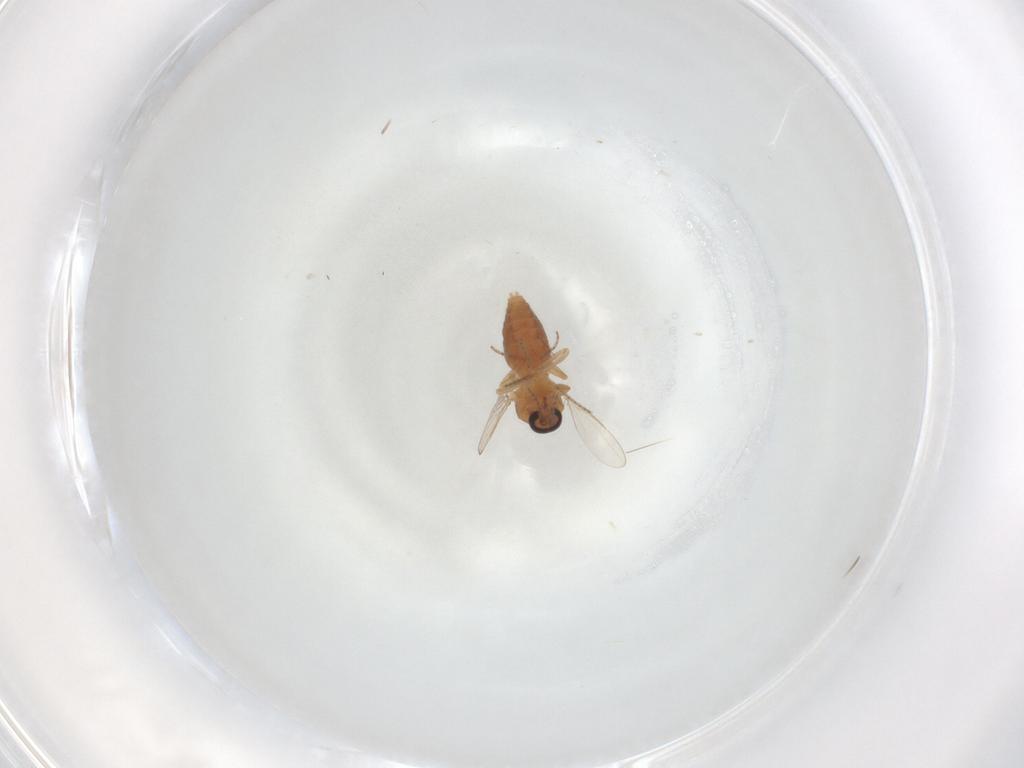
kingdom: Animalia
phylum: Arthropoda
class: Insecta
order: Diptera
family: Ceratopogonidae
